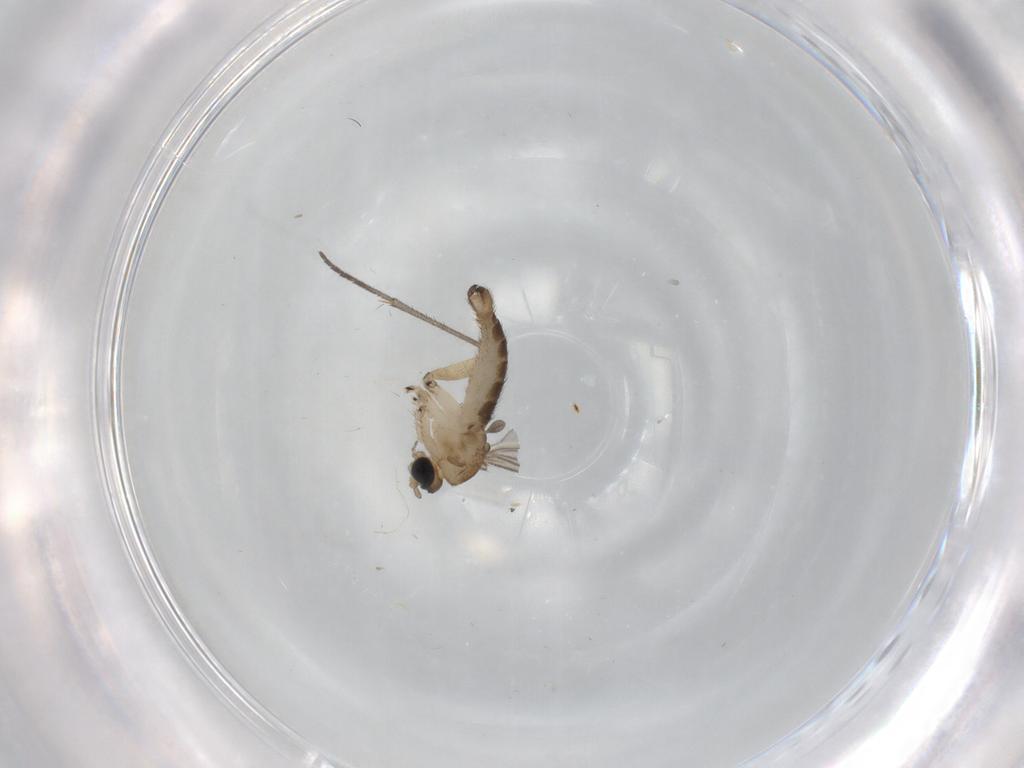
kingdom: Animalia
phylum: Arthropoda
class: Insecta
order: Diptera
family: Sciaridae
